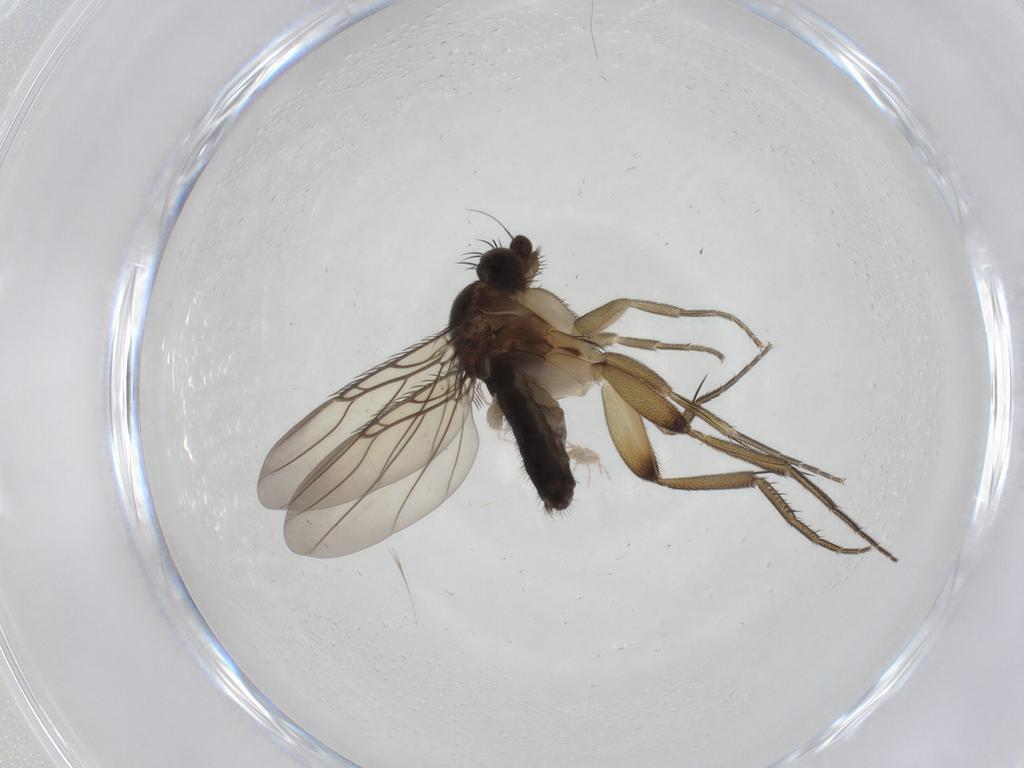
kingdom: Animalia
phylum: Arthropoda
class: Insecta
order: Diptera
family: Phoridae
